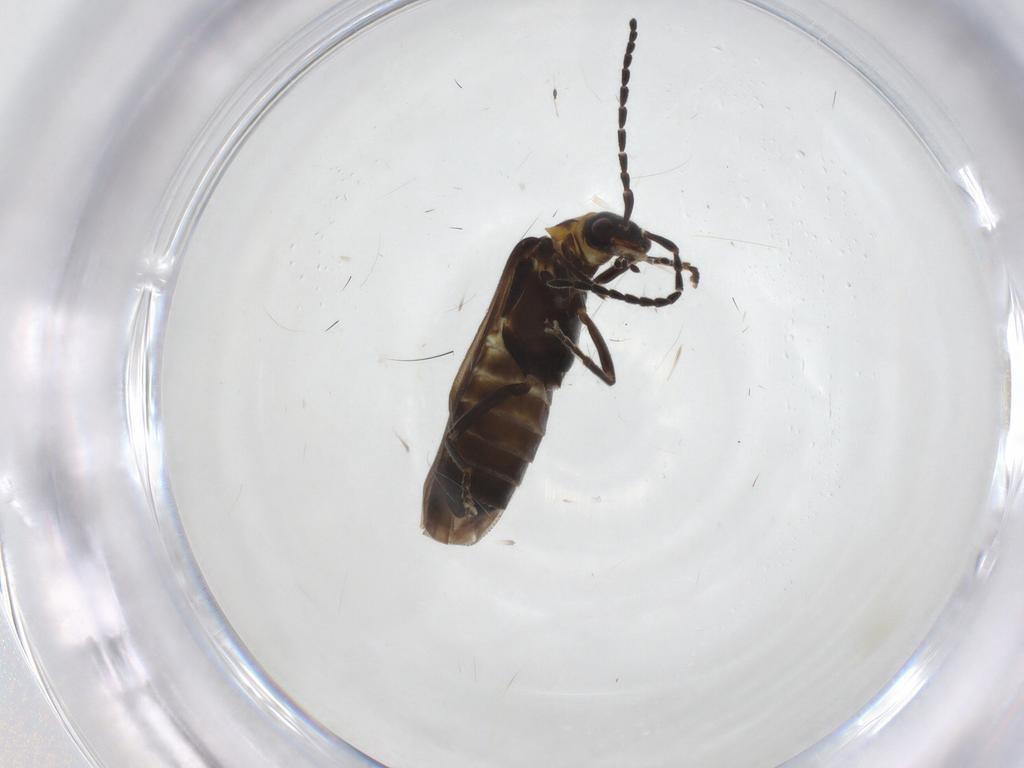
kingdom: Animalia
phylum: Arthropoda
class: Insecta
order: Coleoptera
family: Cantharidae
